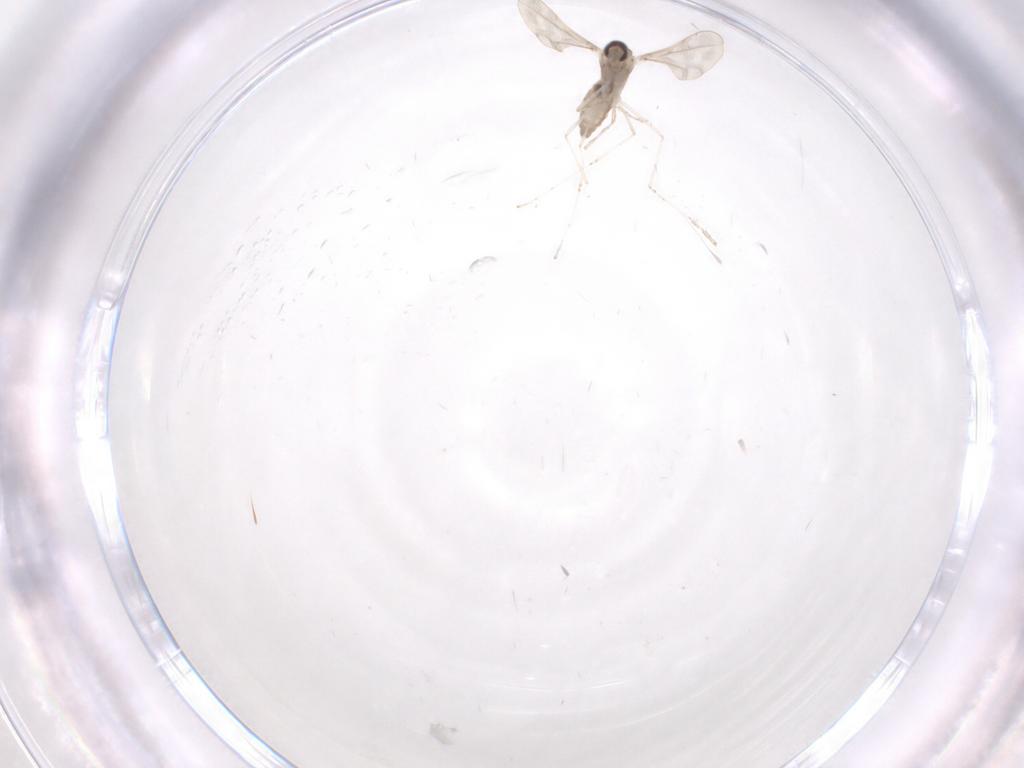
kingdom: Animalia
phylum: Arthropoda
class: Insecta
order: Diptera
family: Cecidomyiidae
